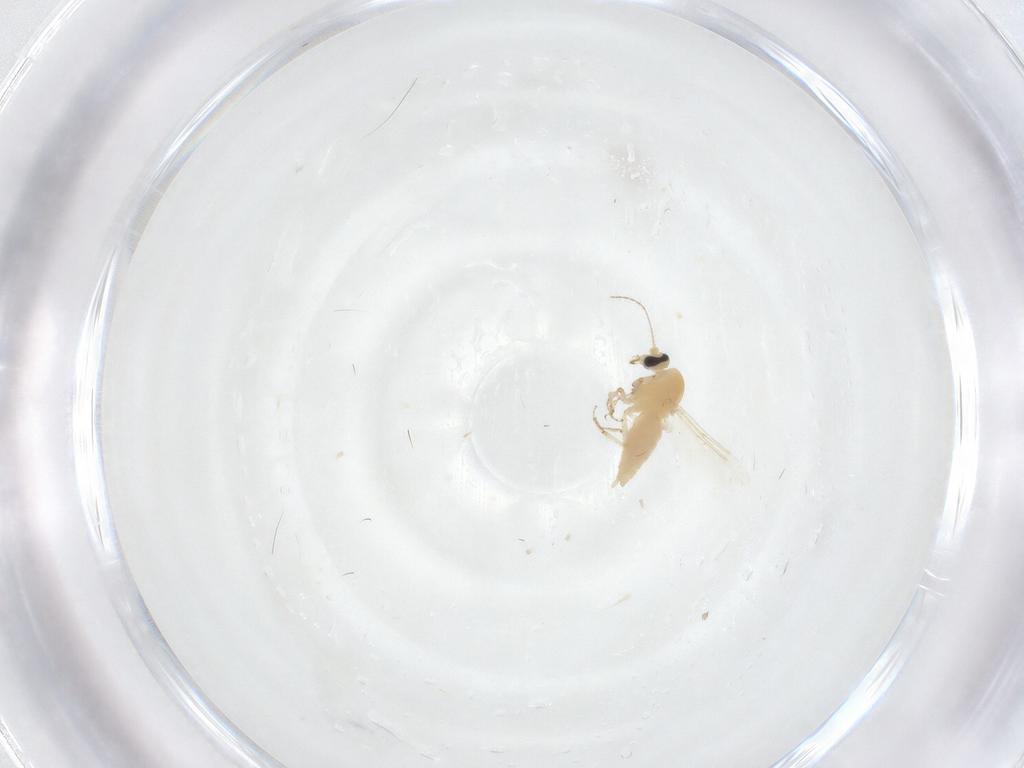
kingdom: Animalia
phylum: Arthropoda
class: Insecta
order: Diptera
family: Ceratopogonidae
